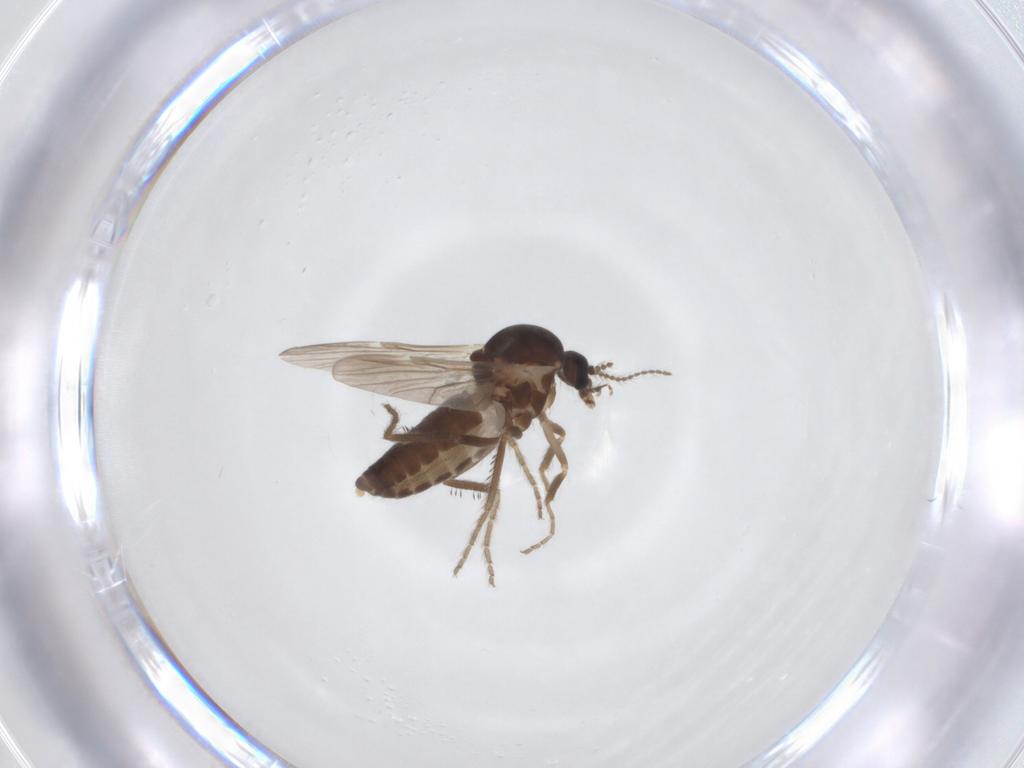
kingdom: Animalia
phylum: Arthropoda
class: Insecta
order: Diptera
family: Ceratopogonidae
